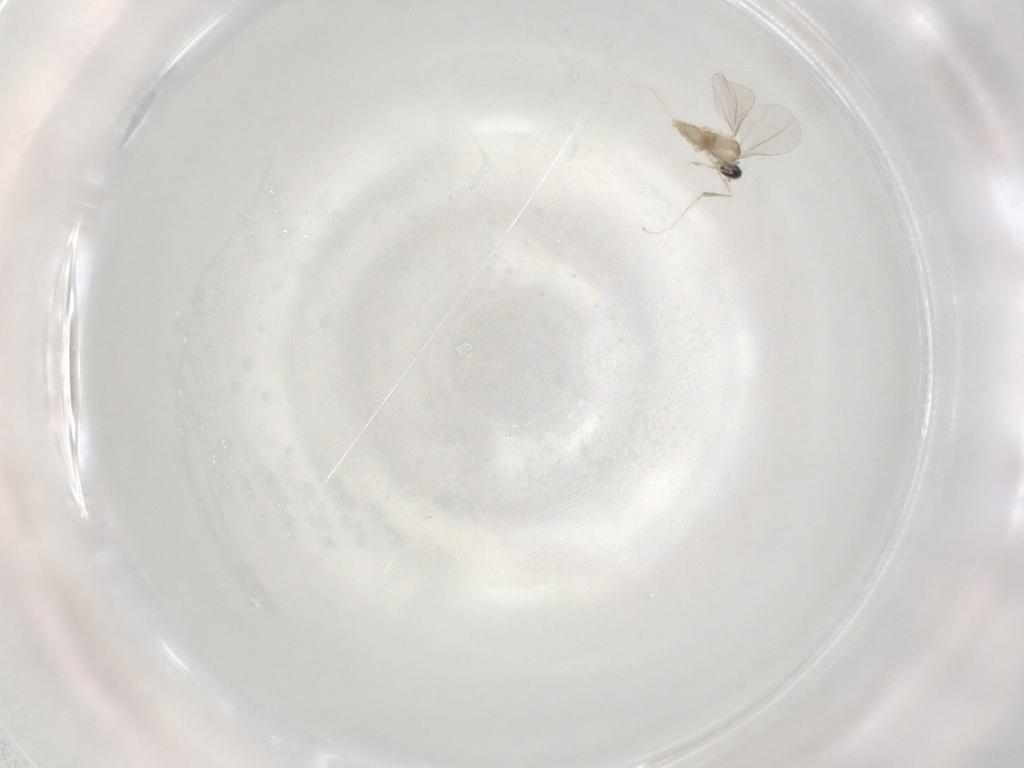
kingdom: Animalia
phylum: Arthropoda
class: Insecta
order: Diptera
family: Cecidomyiidae
